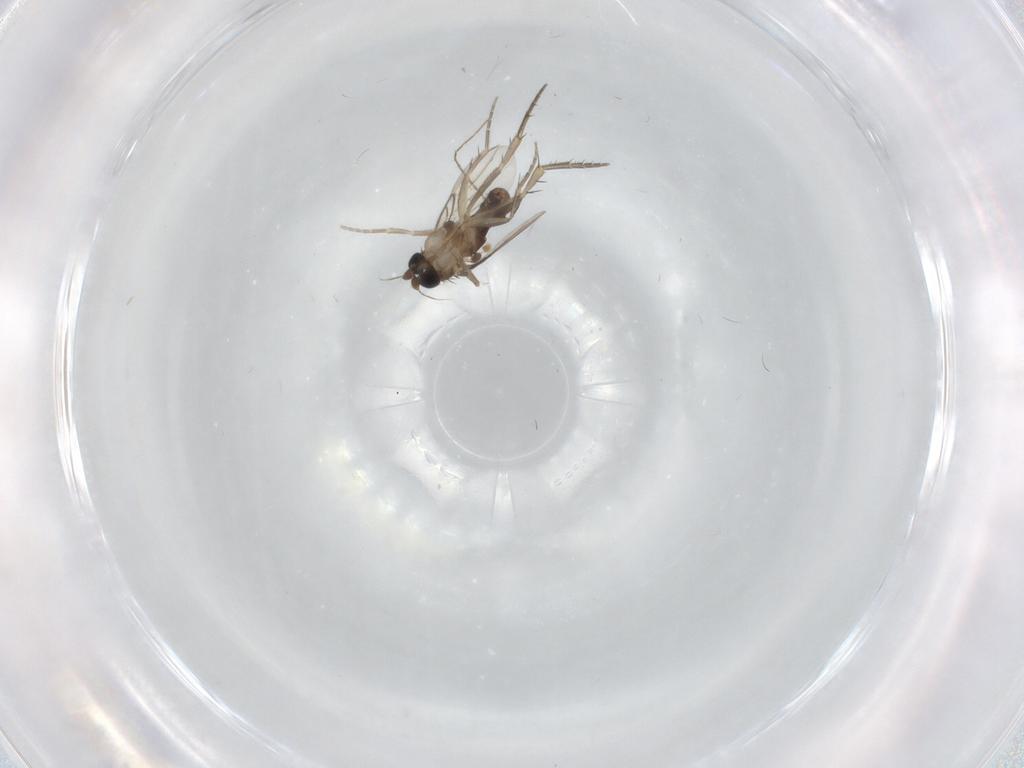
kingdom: Animalia
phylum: Arthropoda
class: Insecta
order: Diptera
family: Phoridae
